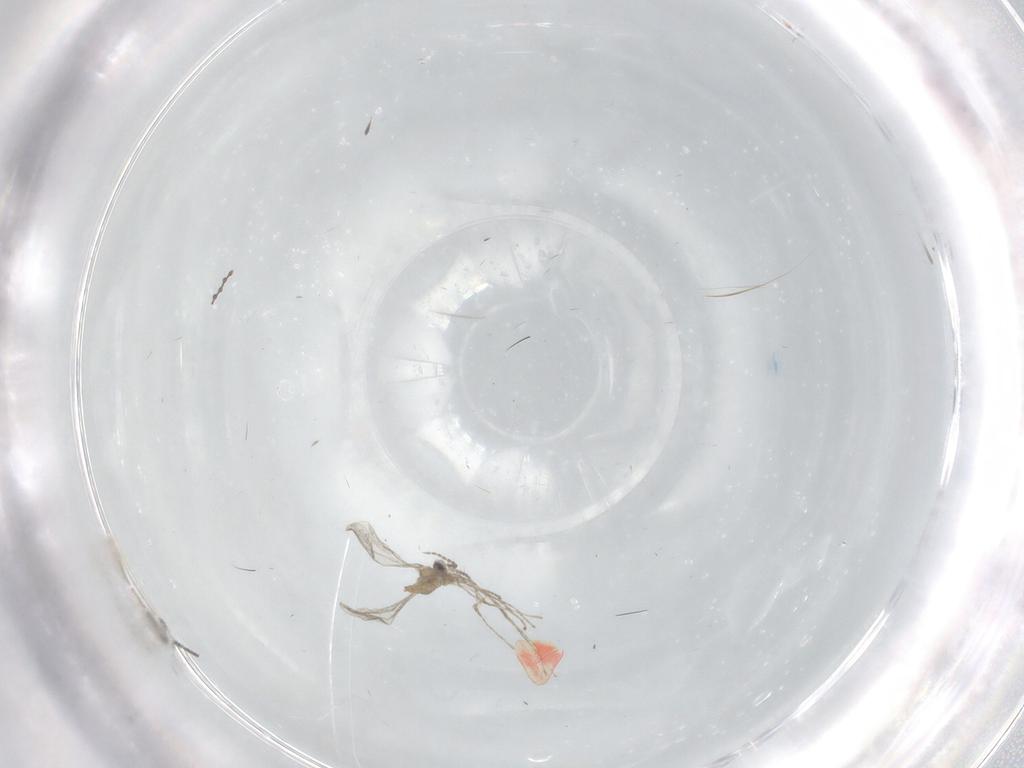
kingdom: Animalia
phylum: Arthropoda
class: Insecta
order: Diptera
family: Sciaridae
